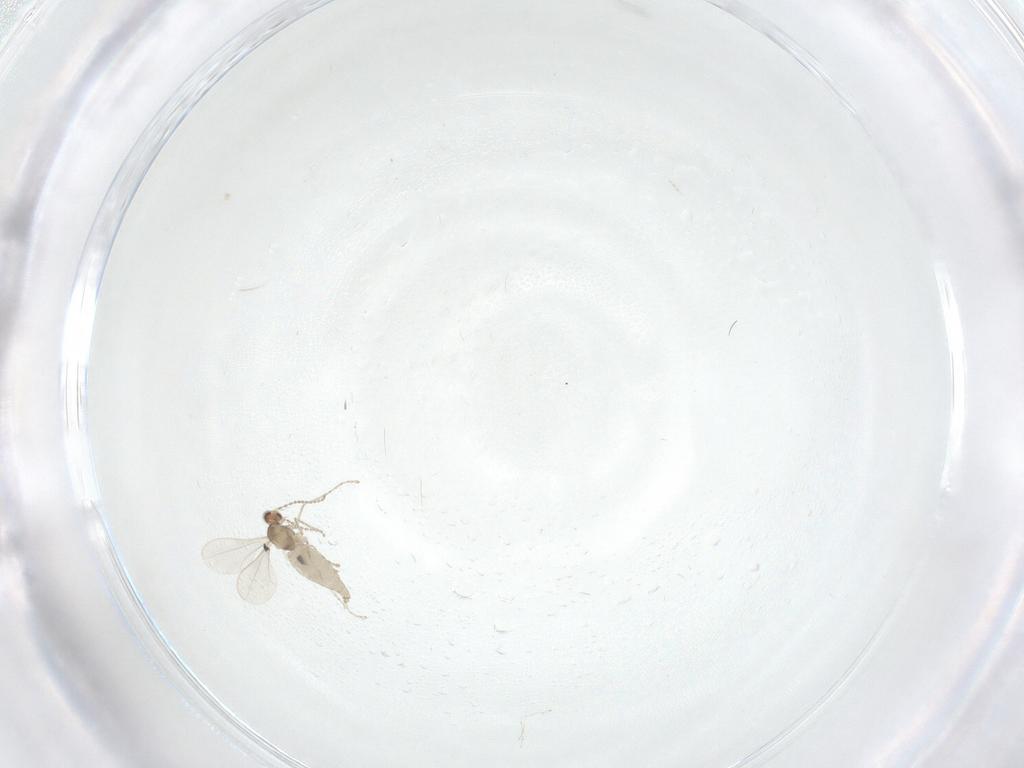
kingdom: Animalia
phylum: Arthropoda
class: Insecta
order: Diptera
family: Cecidomyiidae
